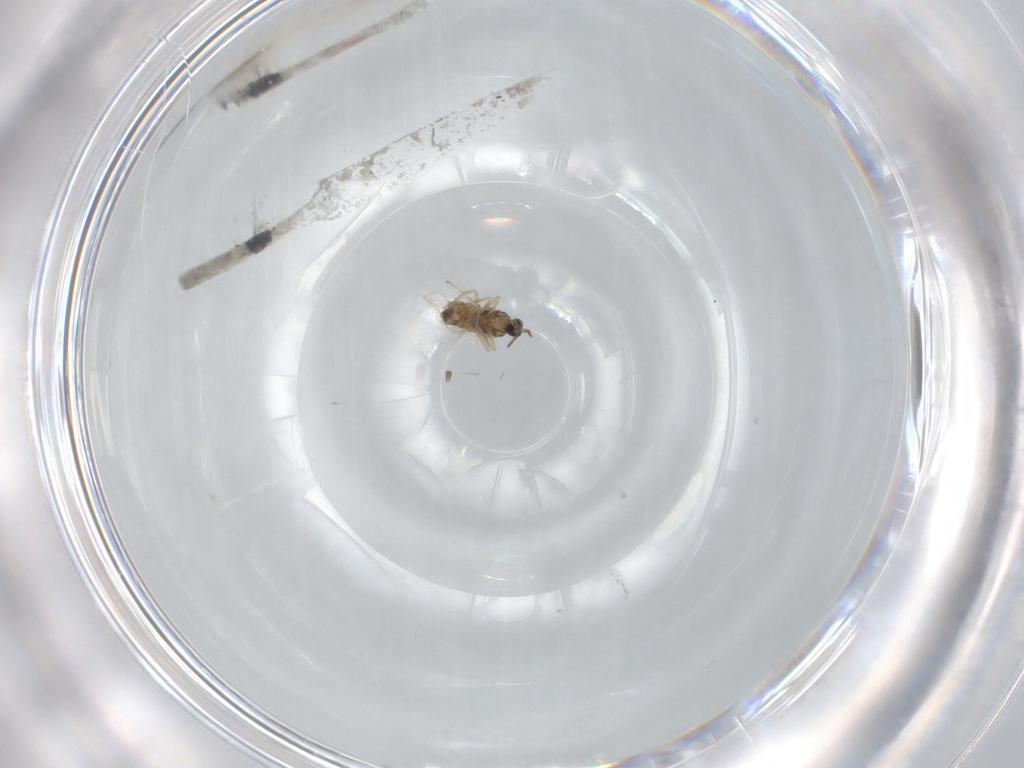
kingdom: Animalia
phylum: Arthropoda
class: Insecta
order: Diptera
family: Cecidomyiidae
